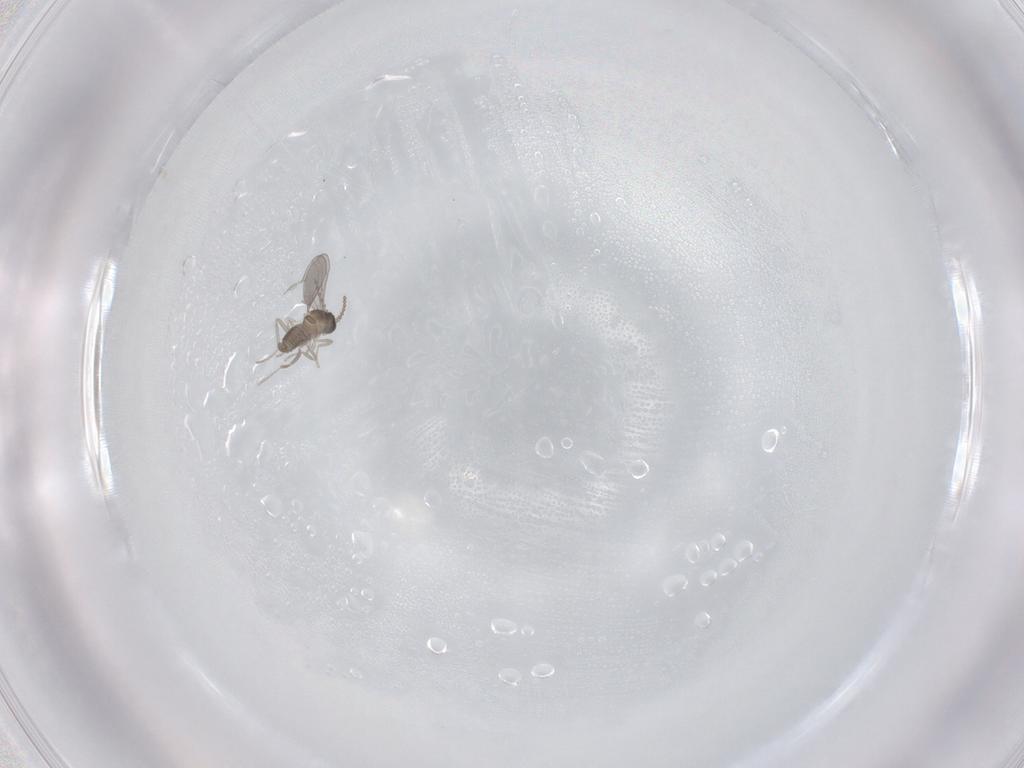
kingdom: Animalia
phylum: Arthropoda
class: Insecta
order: Diptera
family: Cecidomyiidae
